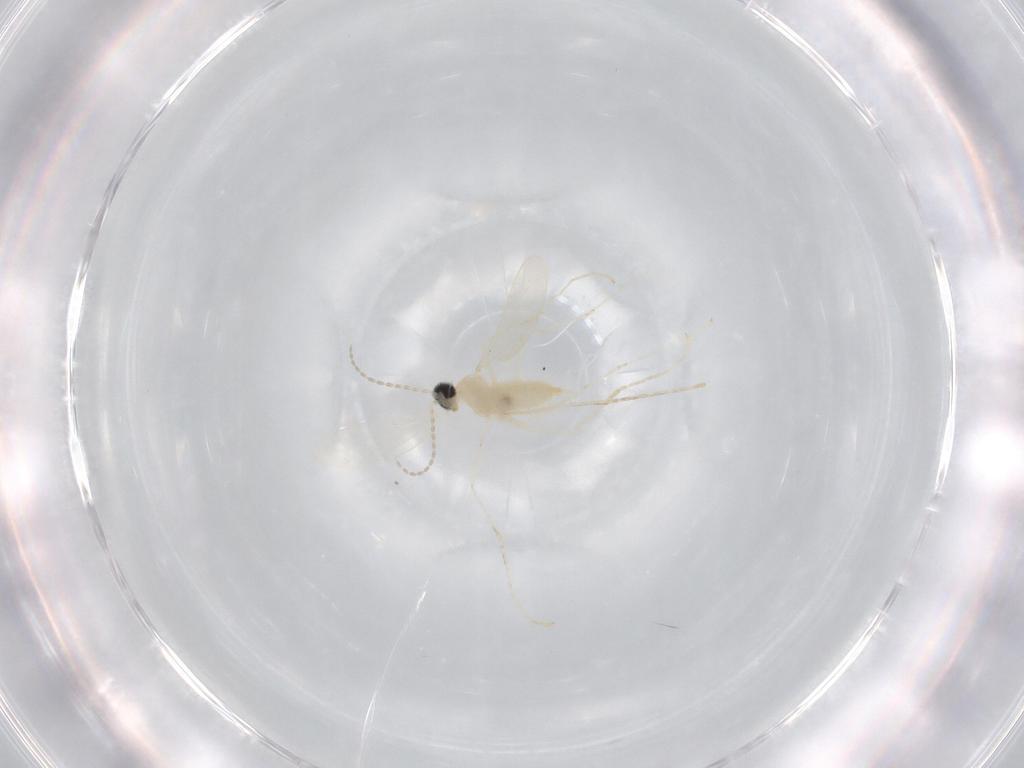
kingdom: Animalia
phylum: Arthropoda
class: Insecta
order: Diptera
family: Cecidomyiidae
